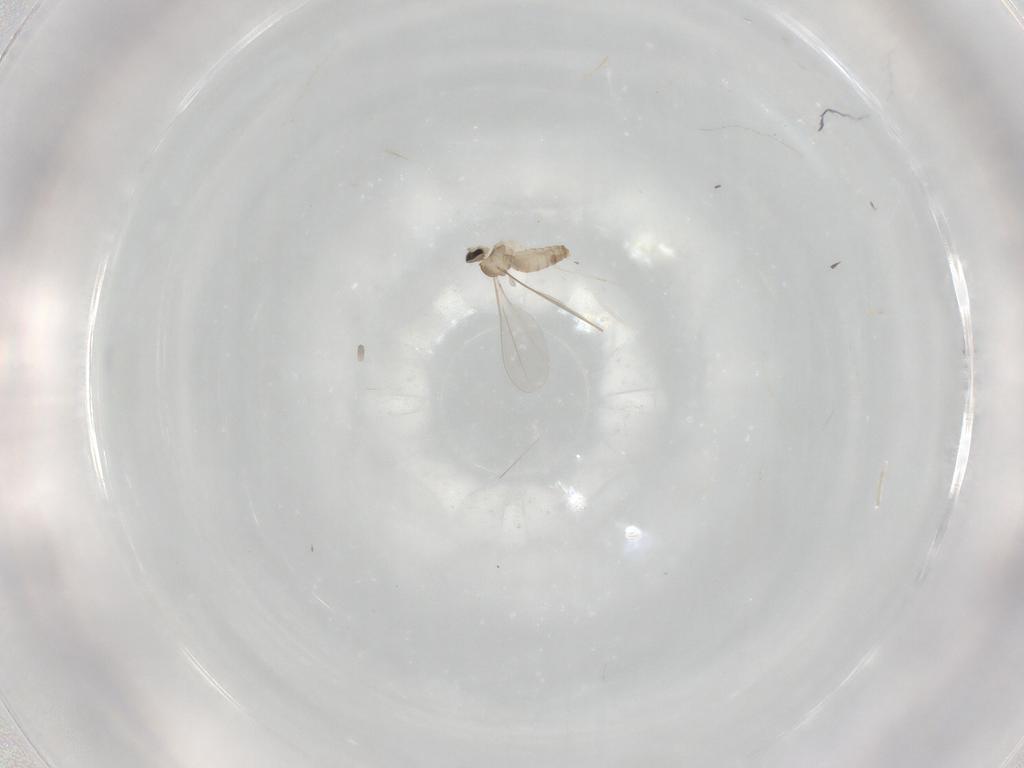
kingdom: Animalia
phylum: Arthropoda
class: Insecta
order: Diptera
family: Cecidomyiidae
